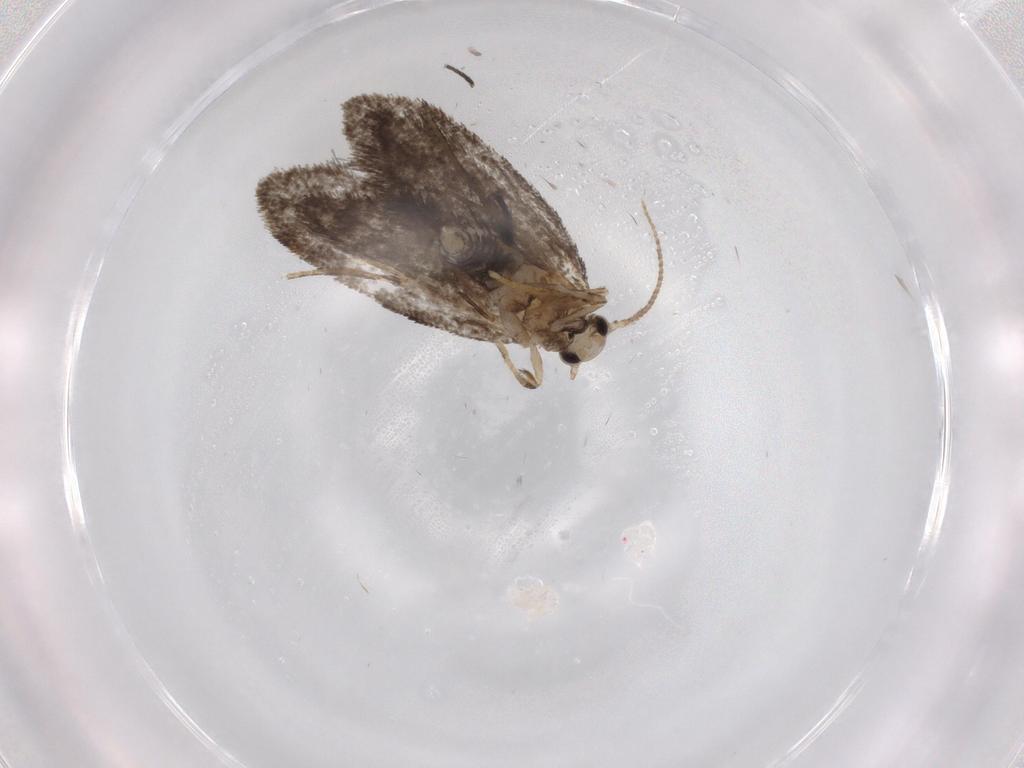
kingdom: Animalia
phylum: Arthropoda
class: Insecta
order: Lepidoptera
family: Psychidae
